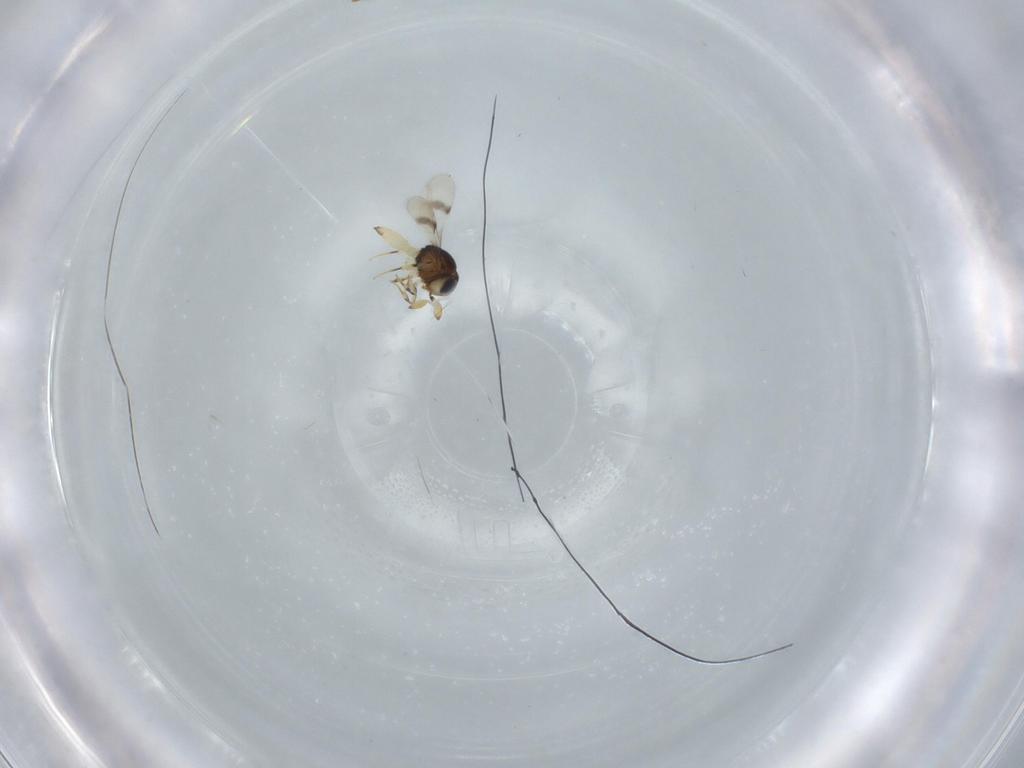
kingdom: Animalia
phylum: Arthropoda
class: Insecta
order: Hymenoptera
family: Scelionidae
